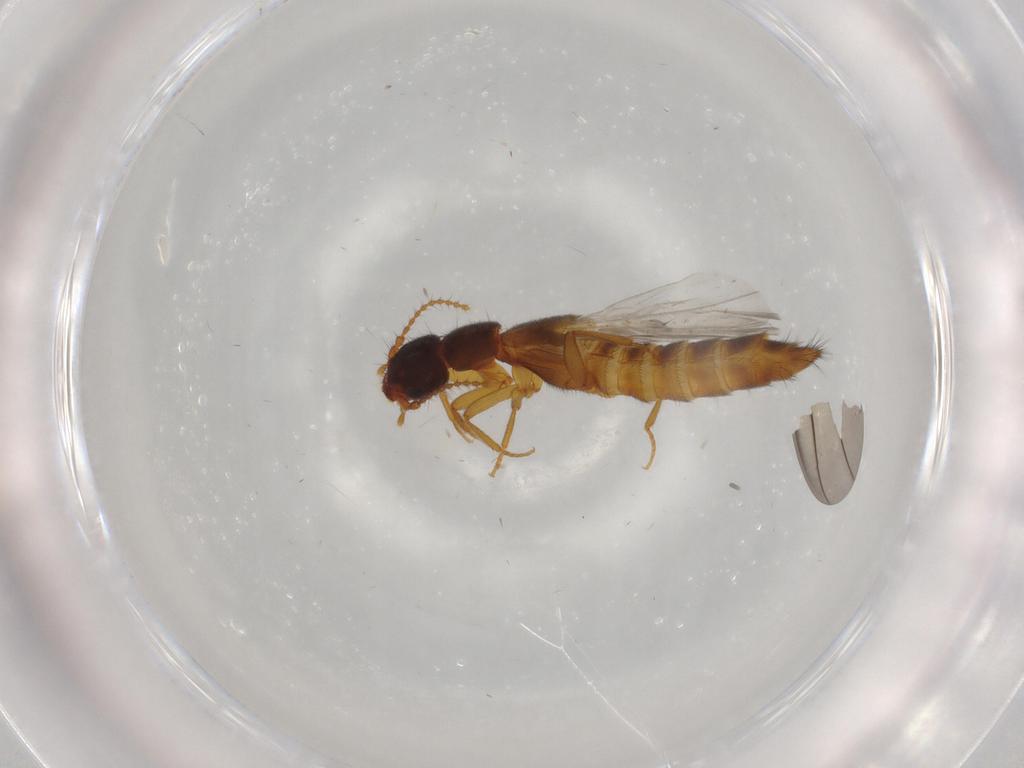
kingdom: Animalia
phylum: Arthropoda
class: Insecta
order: Coleoptera
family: Staphylinidae
